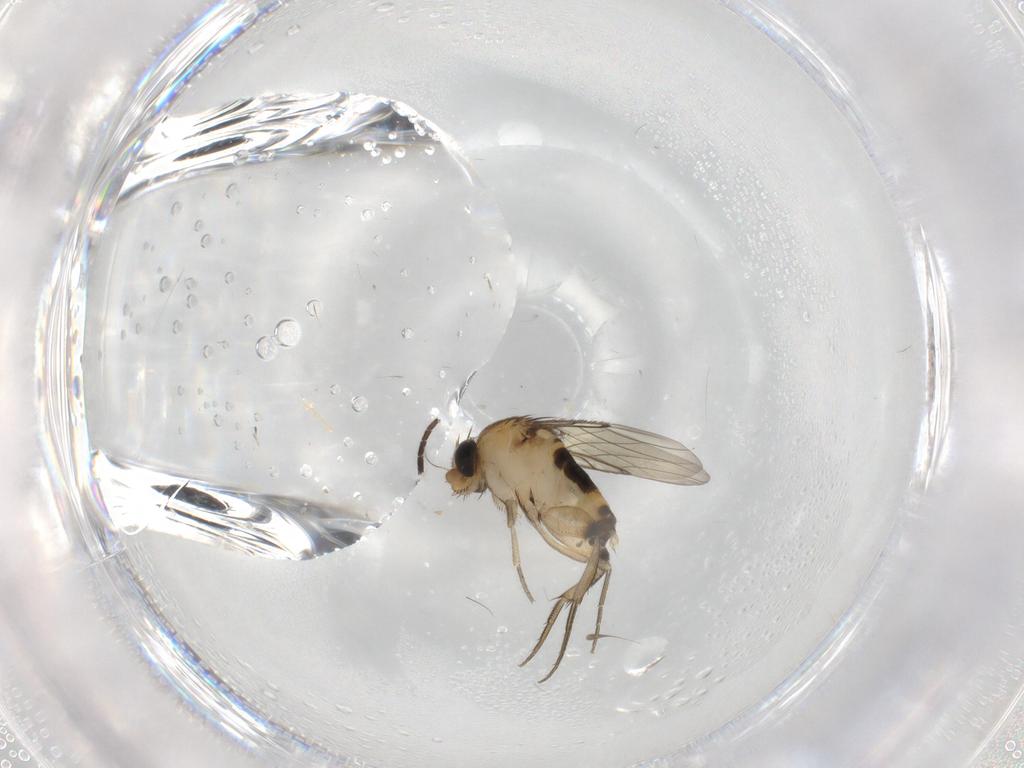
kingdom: Animalia
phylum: Arthropoda
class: Insecta
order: Diptera
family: Phoridae
